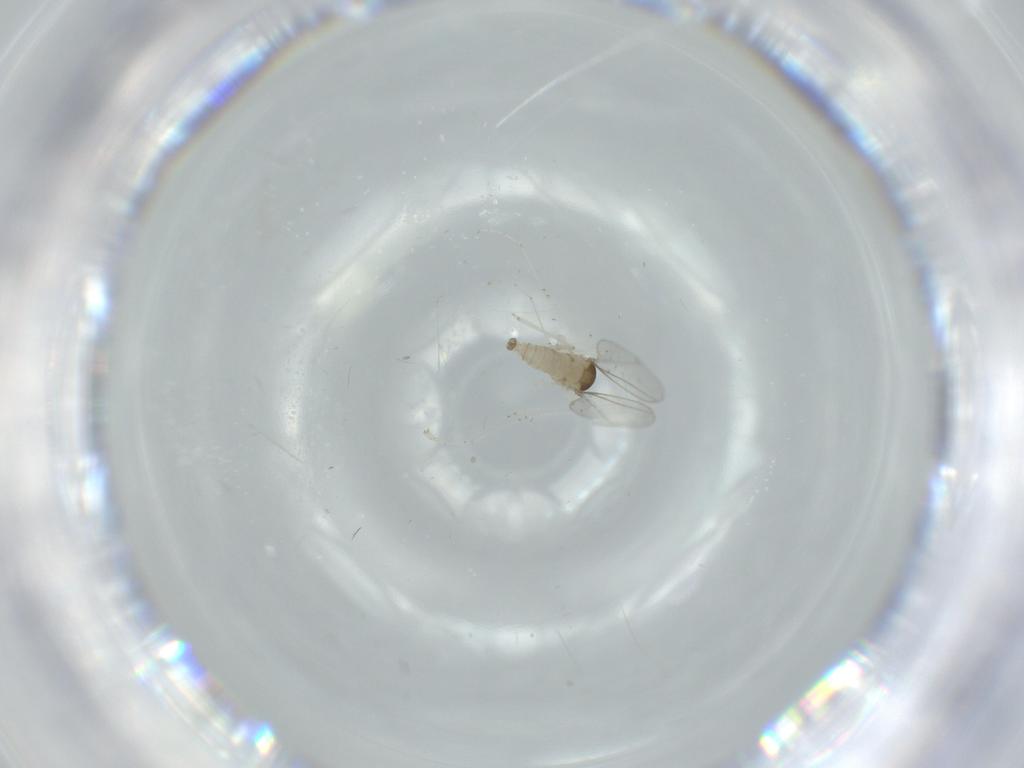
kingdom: Animalia
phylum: Arthropoda
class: Insecta
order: Diptera
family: Cecidomyiidae
